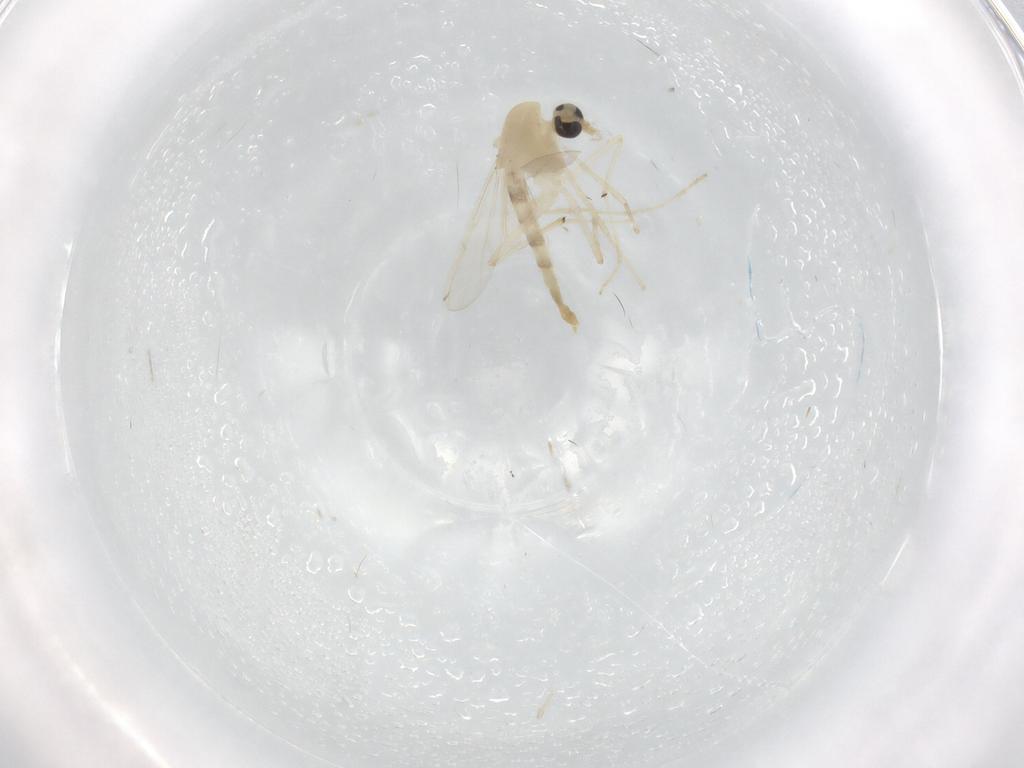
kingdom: Animalia
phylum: Arthropoda
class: Insecta
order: Diptera
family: Chironomidae
